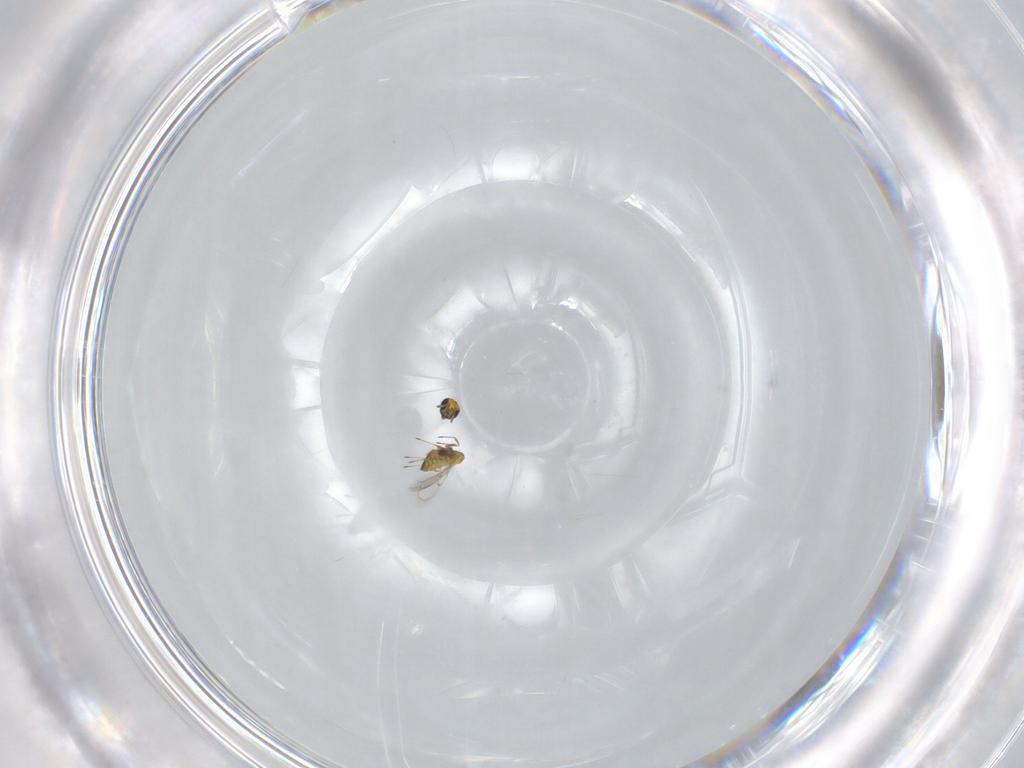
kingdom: Animalia
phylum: Arthropoda
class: Insecta
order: Hymenoptera
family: Trichogrammatidae
